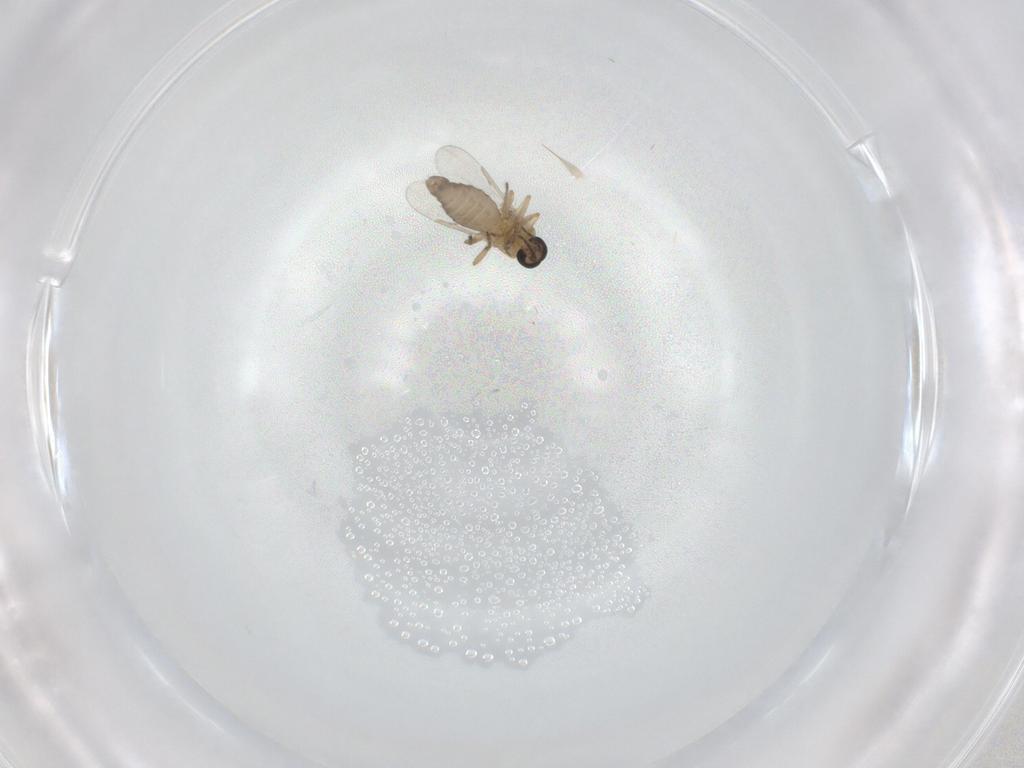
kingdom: Animalia
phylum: Arthropoda
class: Insecta
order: Diptera
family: Ceratopogonidae
